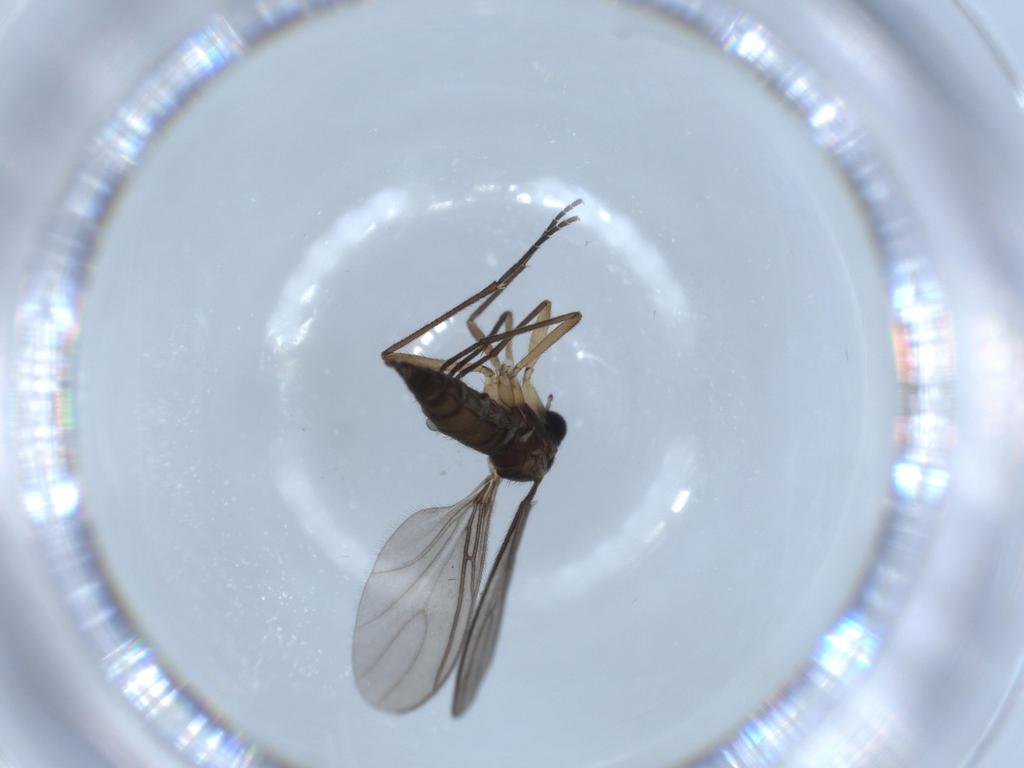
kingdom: Animalia
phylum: Arthropoda
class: Insecta
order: Diptera
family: Sciaridae
